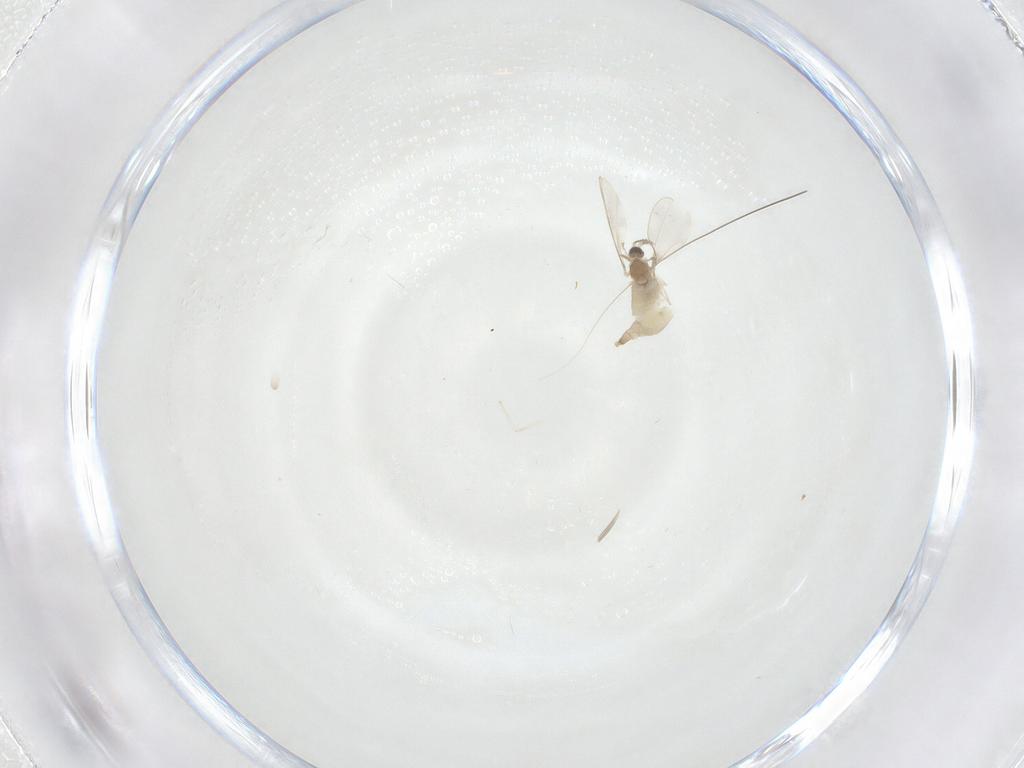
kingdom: Animalia
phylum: Arthropoda
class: Insecta
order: Diptera
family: Cecidomyiidae
